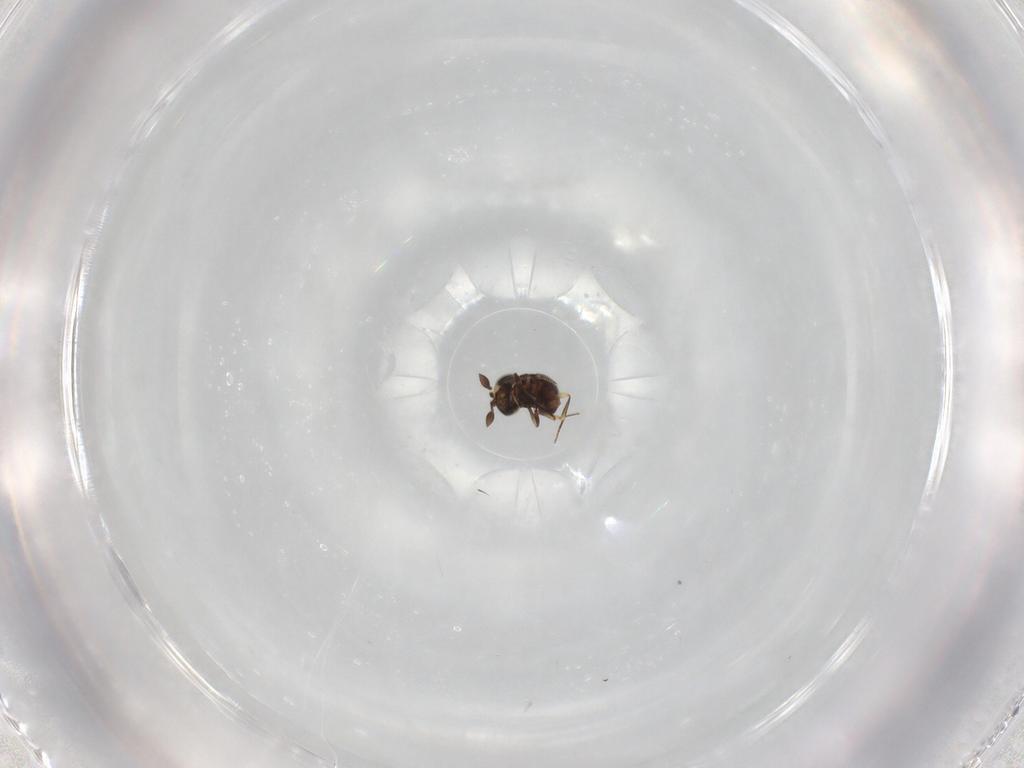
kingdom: Animalia
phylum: Arthropoda
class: Insecta
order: Hymenoptera
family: Scelionidae
